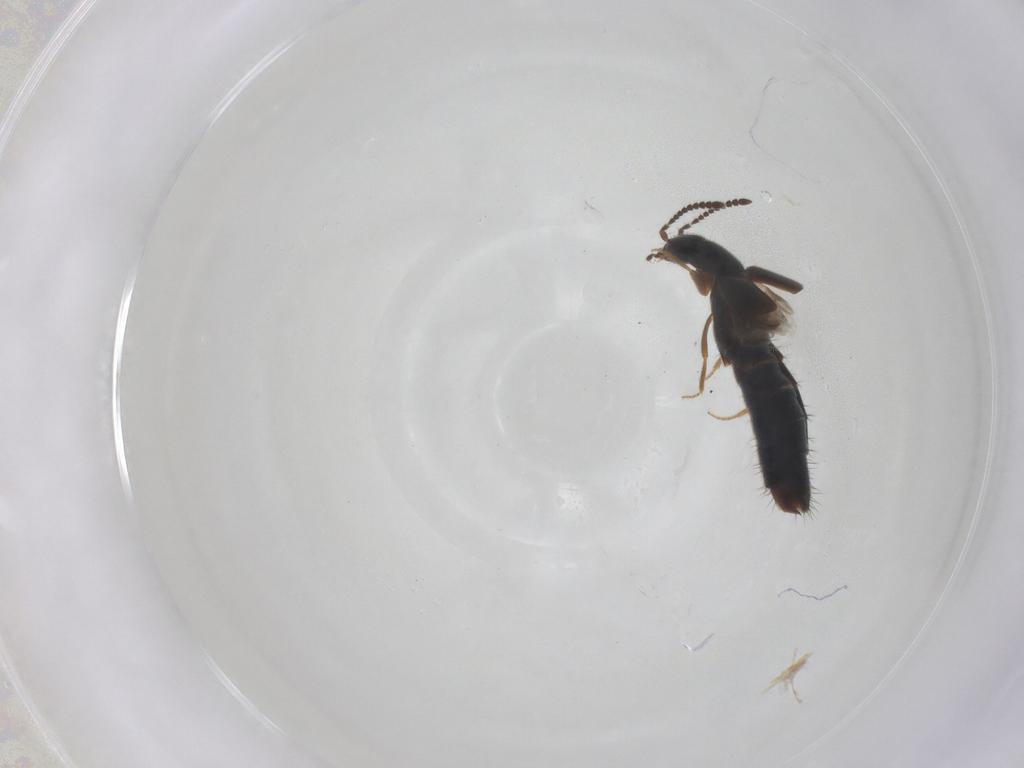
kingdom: Animalia
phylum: Arthropoda
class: Insecta
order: Coleoptera
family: Staphylinidae
